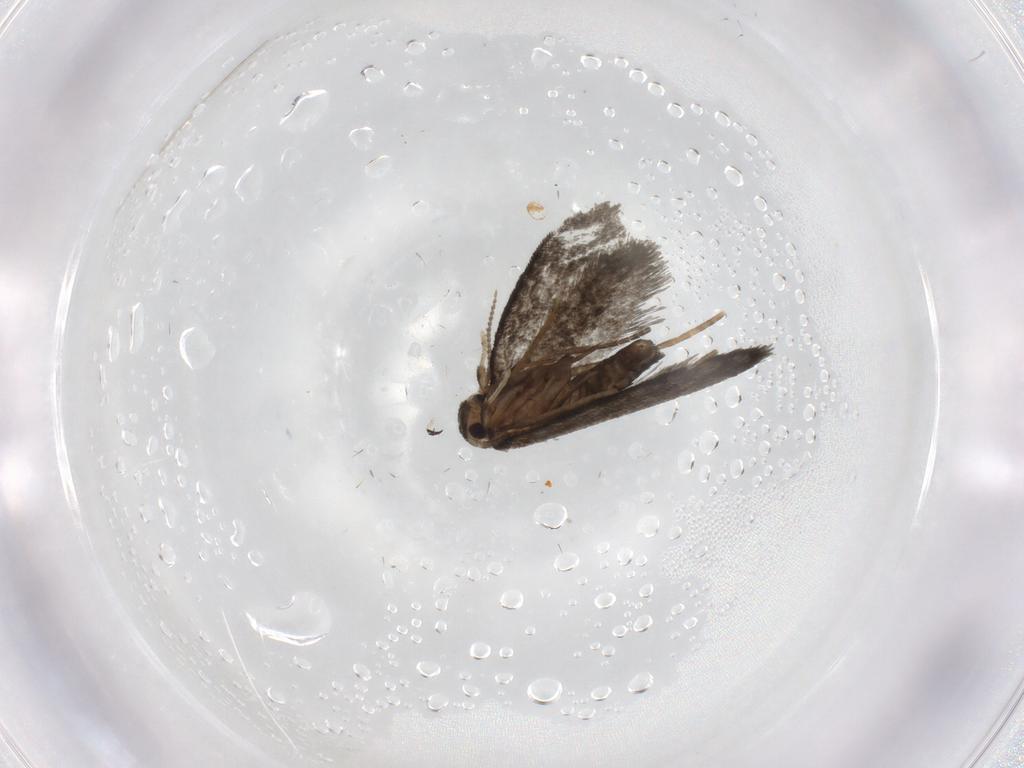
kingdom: Animalia
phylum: Arthropoda
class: Insecta
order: Lepidoptera
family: Psychidae
